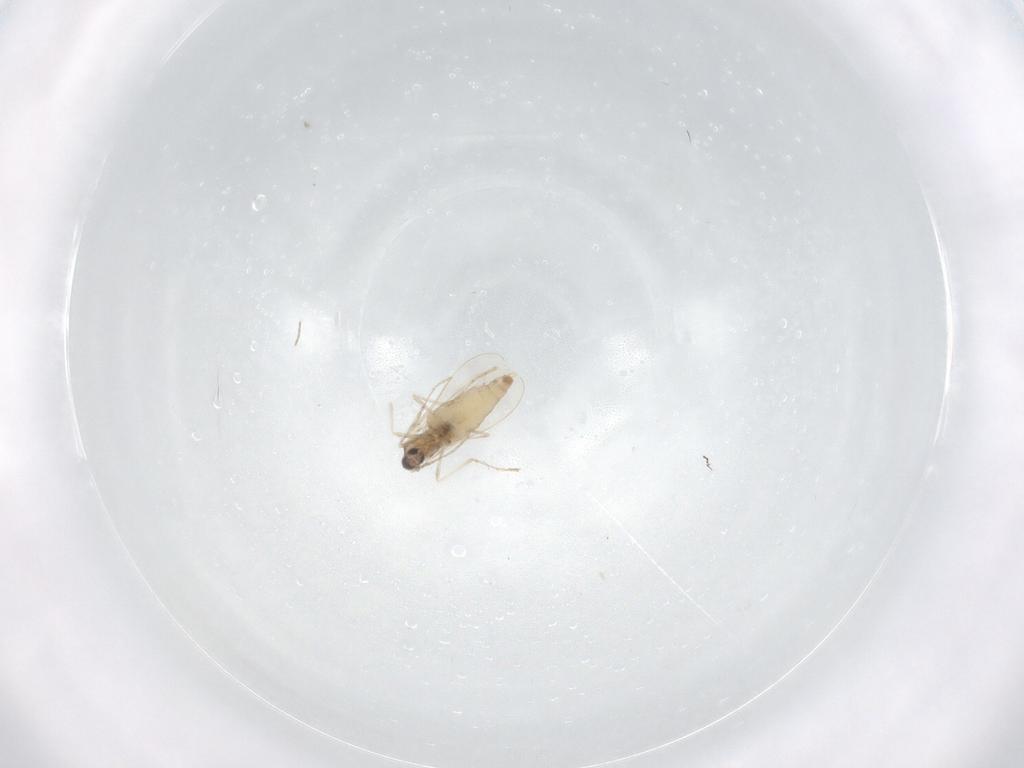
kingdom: Animalia
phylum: Arthropoda
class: Insecta
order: Diptera
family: Cecidomyiidae
